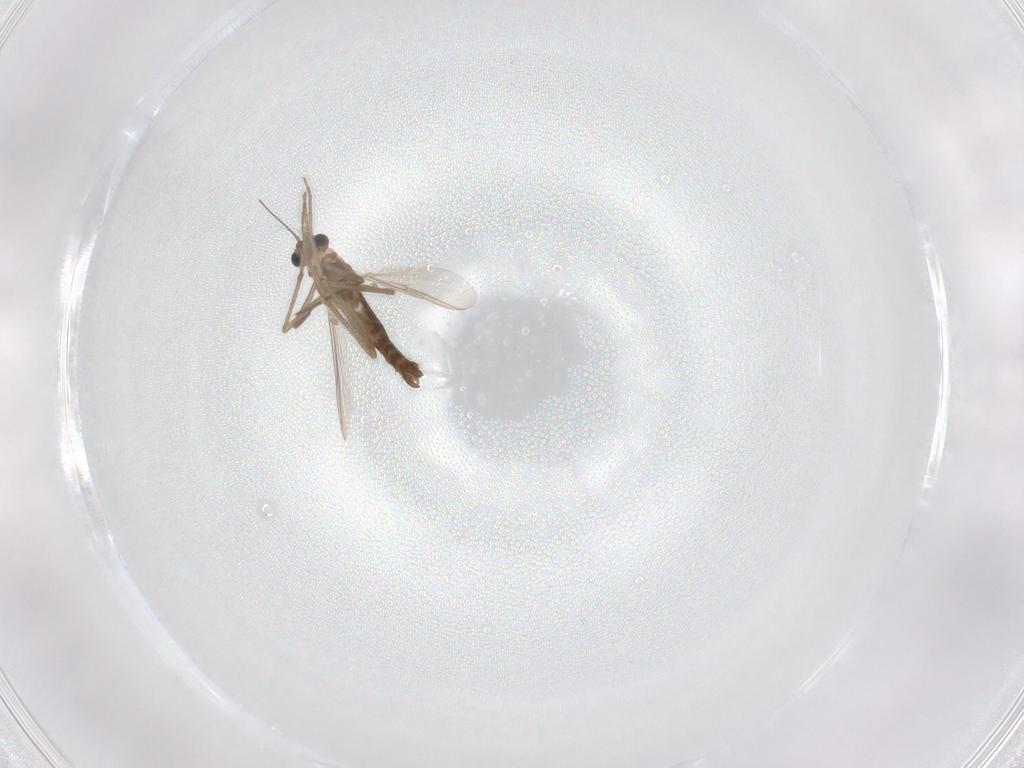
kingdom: Animalia
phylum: Arthropoda
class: Insecta
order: Diptera
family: Chironomidae
